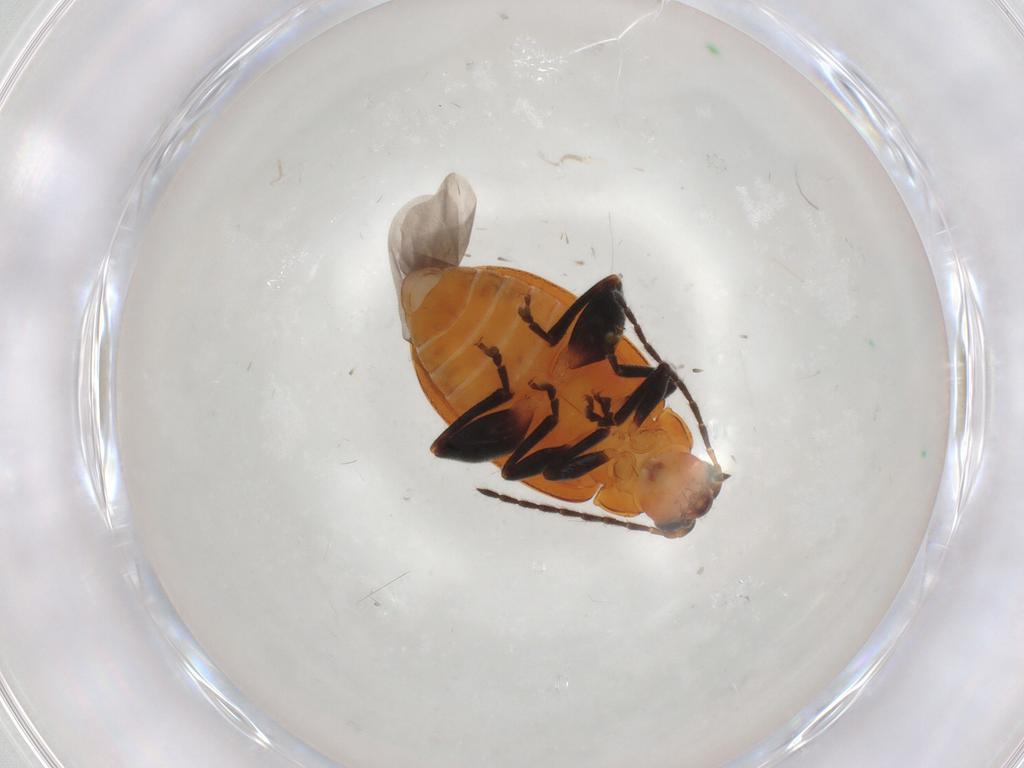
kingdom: Animalia
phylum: Arthropoda
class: Insecta
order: Coleoptera
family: Chrysomelidae
